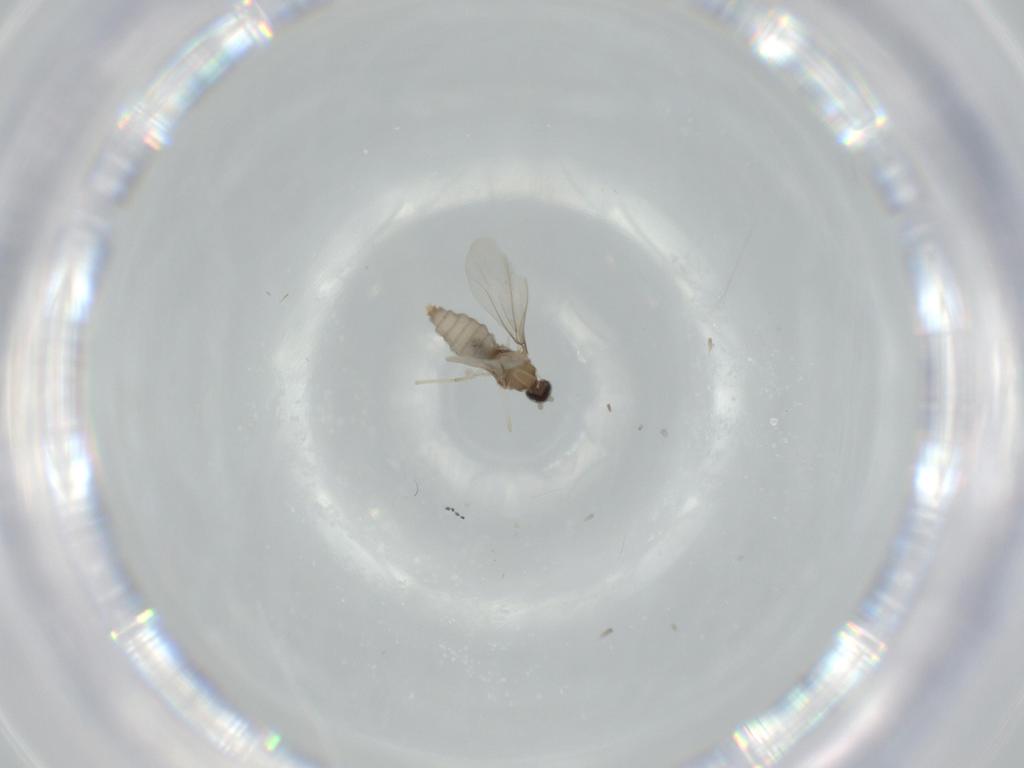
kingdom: Animalia
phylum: Arthropoda
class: Insecta
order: Diptera
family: Cecidomyiidae
